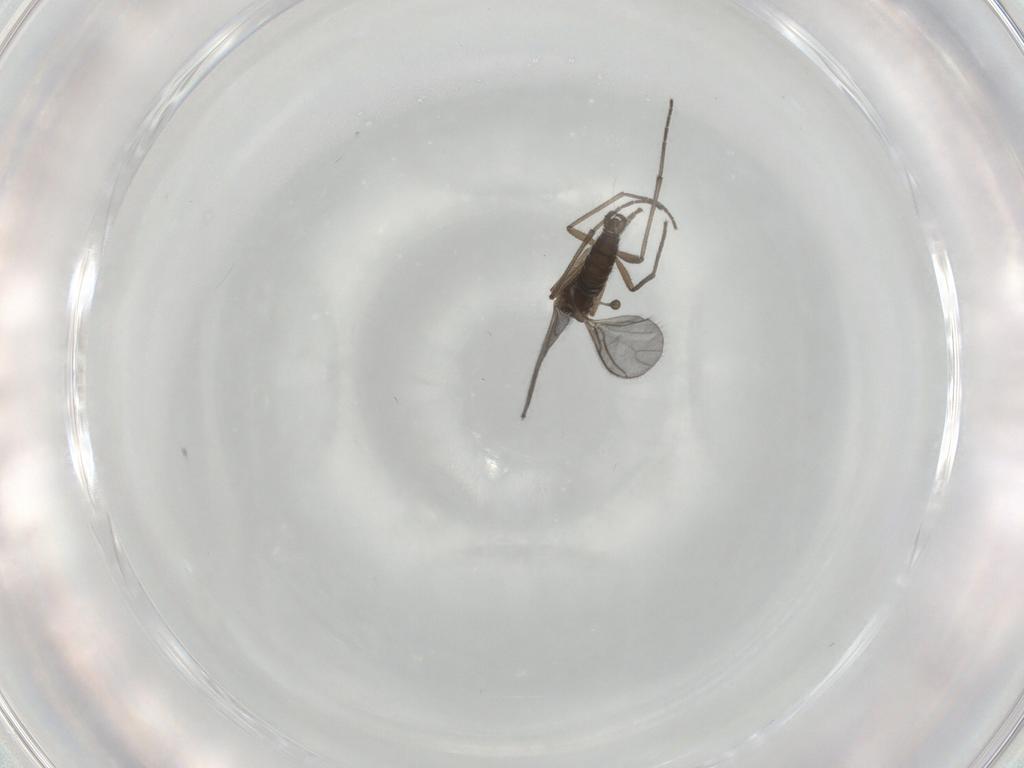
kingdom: Animalia
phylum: Arthropoda
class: Insecta
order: Diptera
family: Sciaridae
